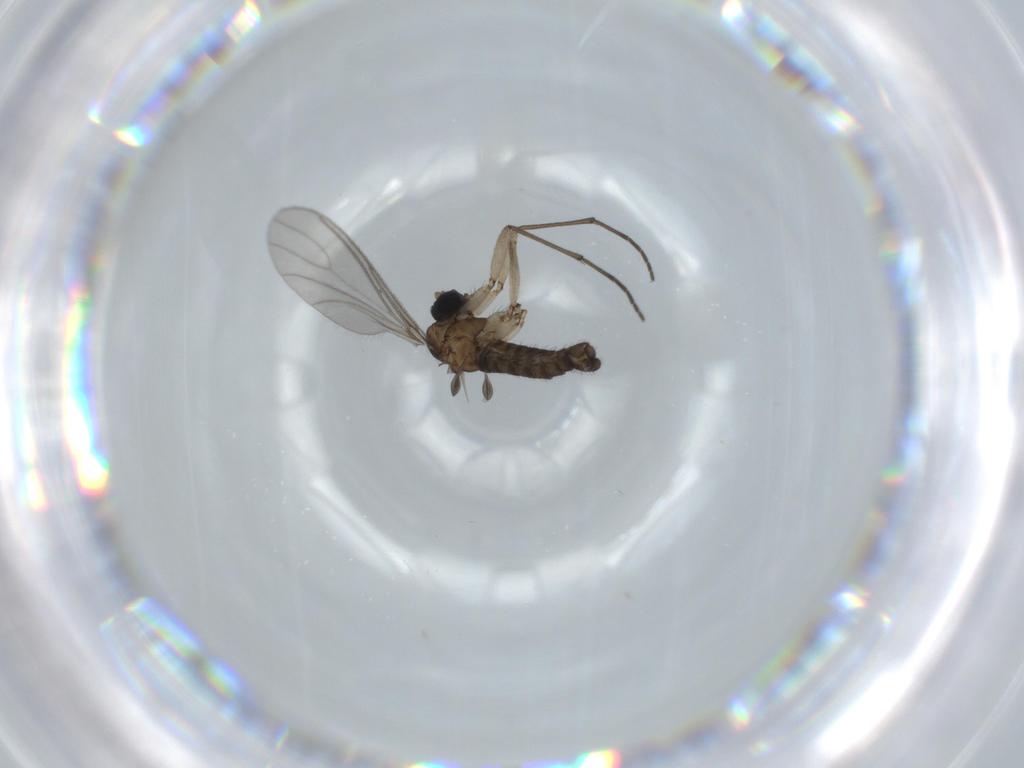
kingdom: Animalia
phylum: Arthropoda
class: Insecta
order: Diptera
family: Sciaridae
